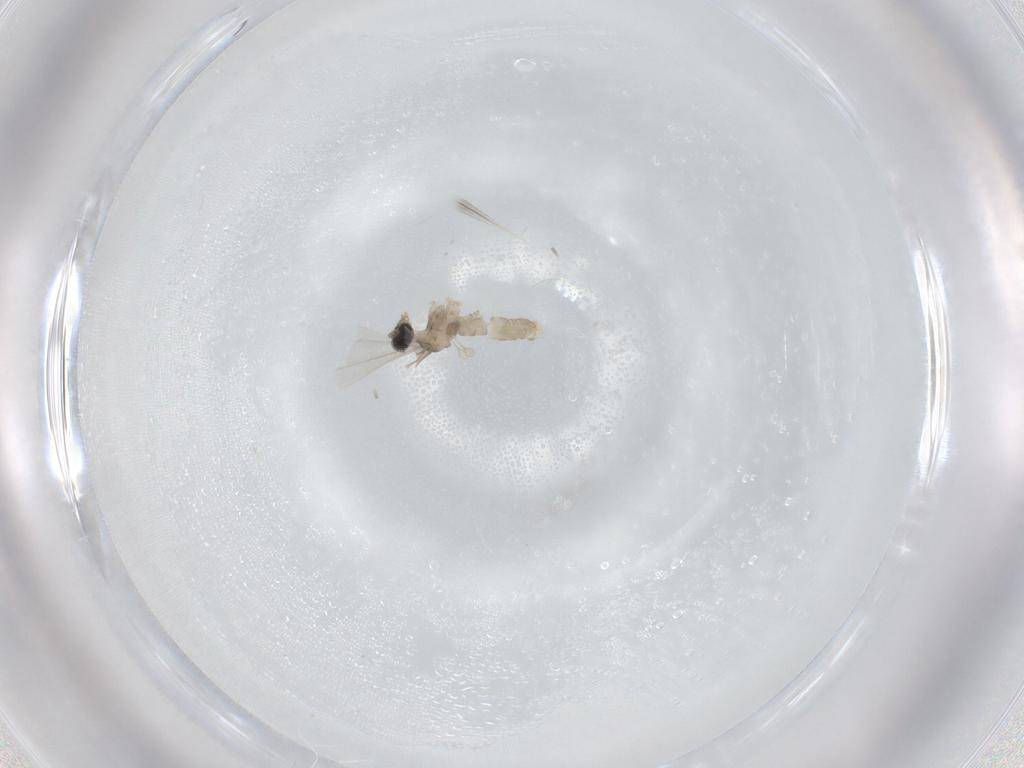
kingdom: Animalia
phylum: Arthropoda
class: Insecta
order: Diptera
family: Cecidomyiidae
